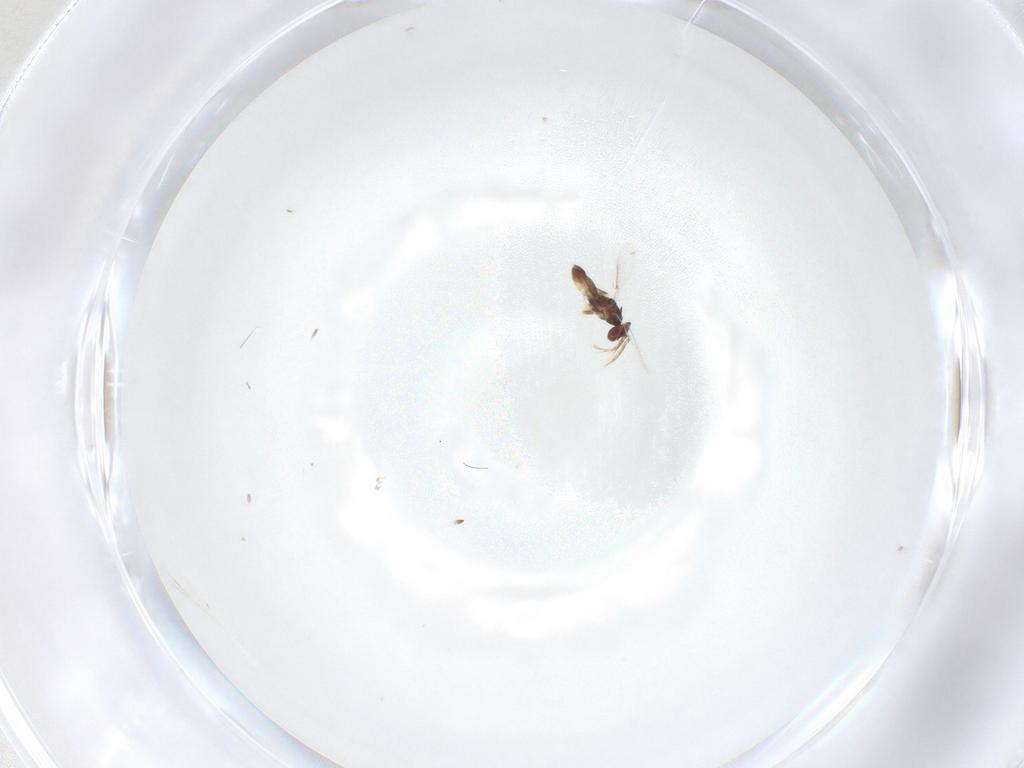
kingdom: Animalia
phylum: Arthropoda
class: Insecta
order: Hymenoptera
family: Eulophidae
